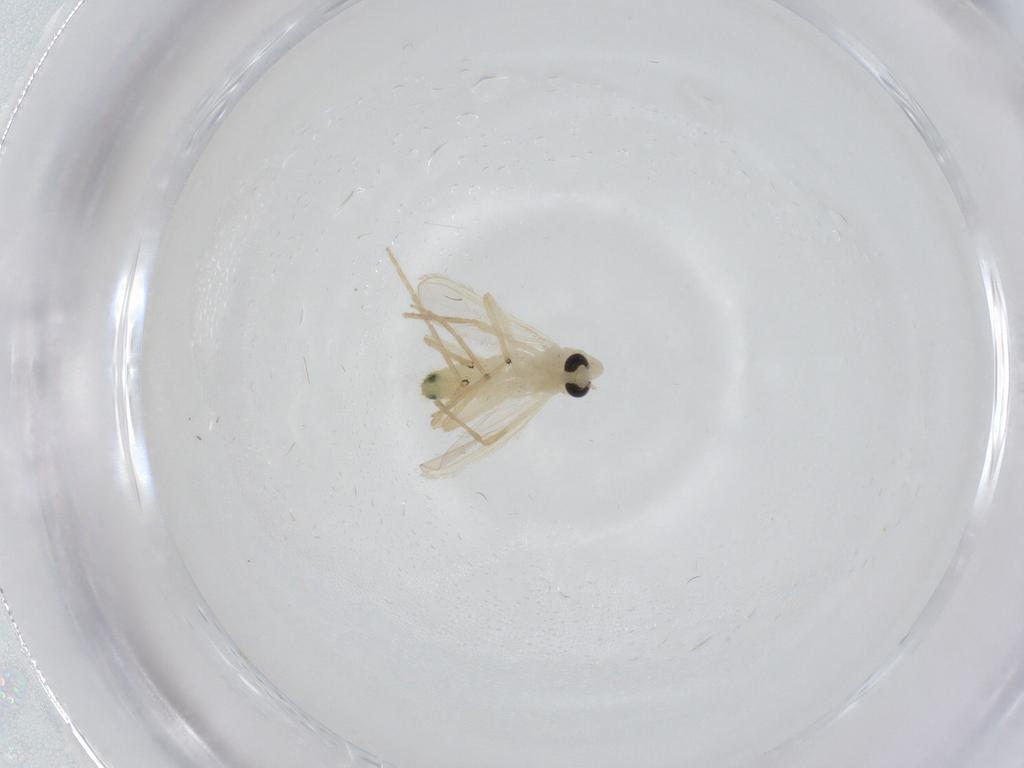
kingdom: Animalia
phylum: Arthropoda
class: Insecta
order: Diptera
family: Chironomidae
